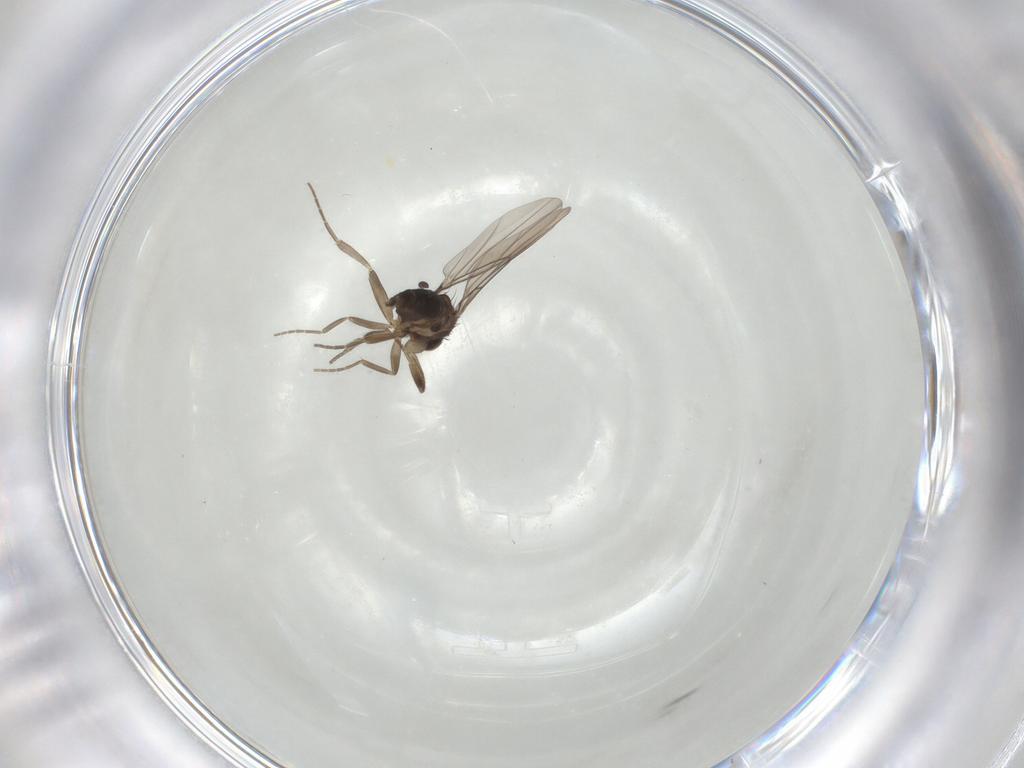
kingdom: Animalia
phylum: Arthropoda
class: Insecta
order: Diptera
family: Phoridae
